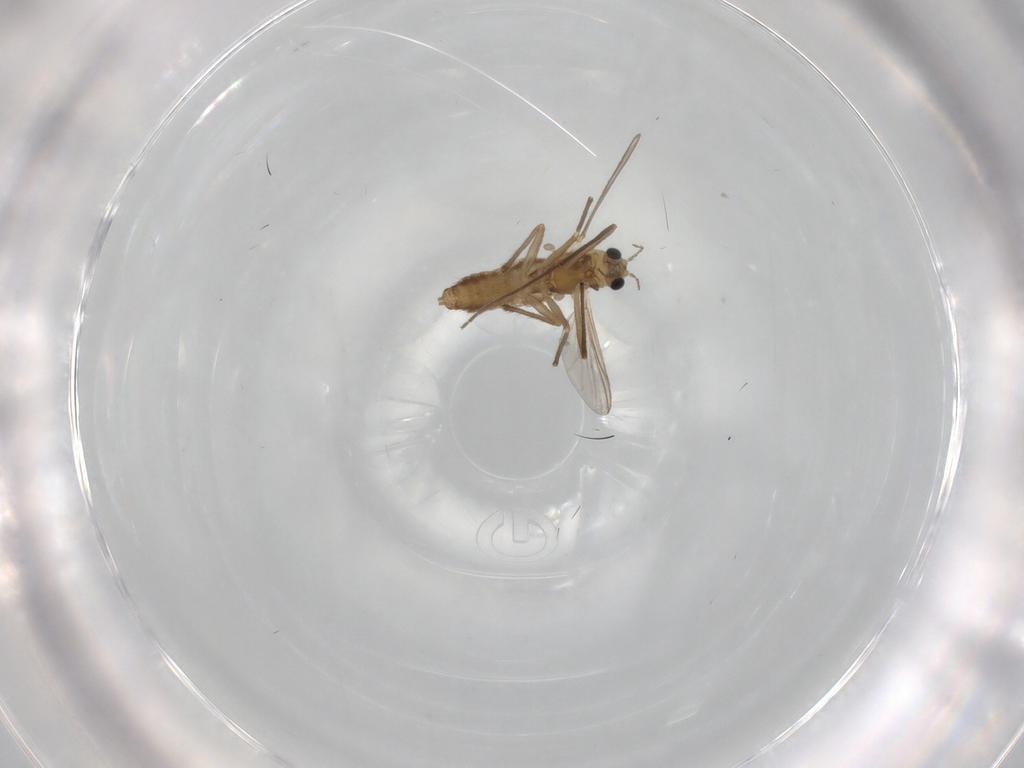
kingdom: Animalia
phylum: Arthropoda
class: Insecta
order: Diptera
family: Chironomidae
